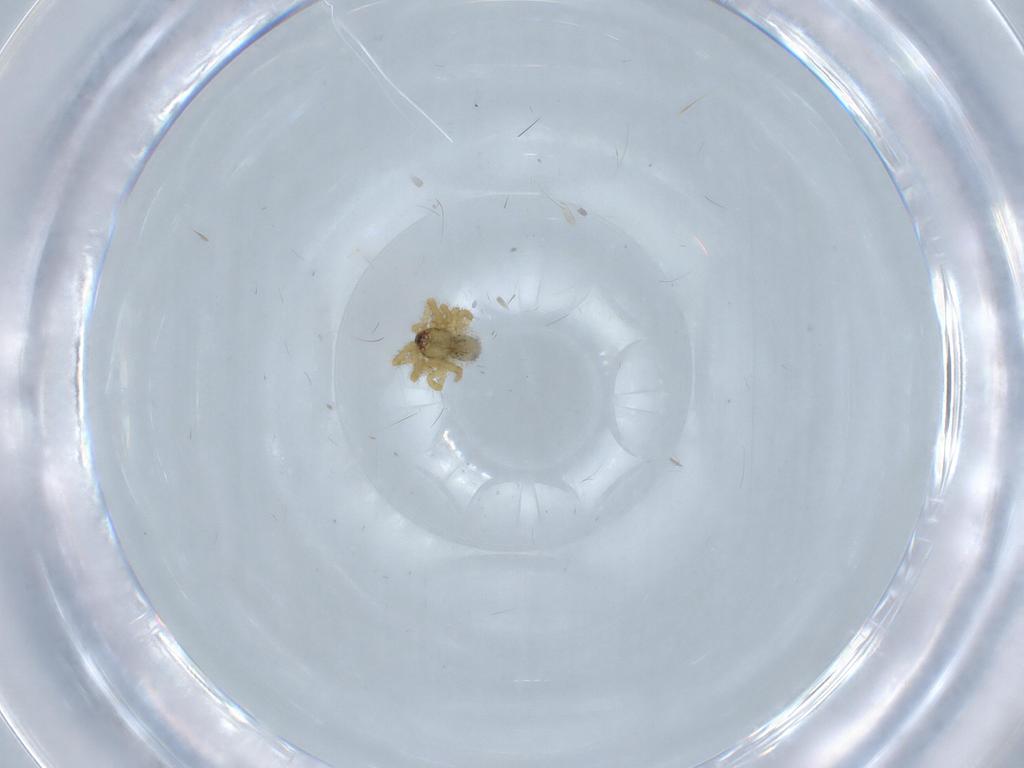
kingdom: Animalia
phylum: Arthropoda
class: Arachnida
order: Araneae
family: Theridiidae
